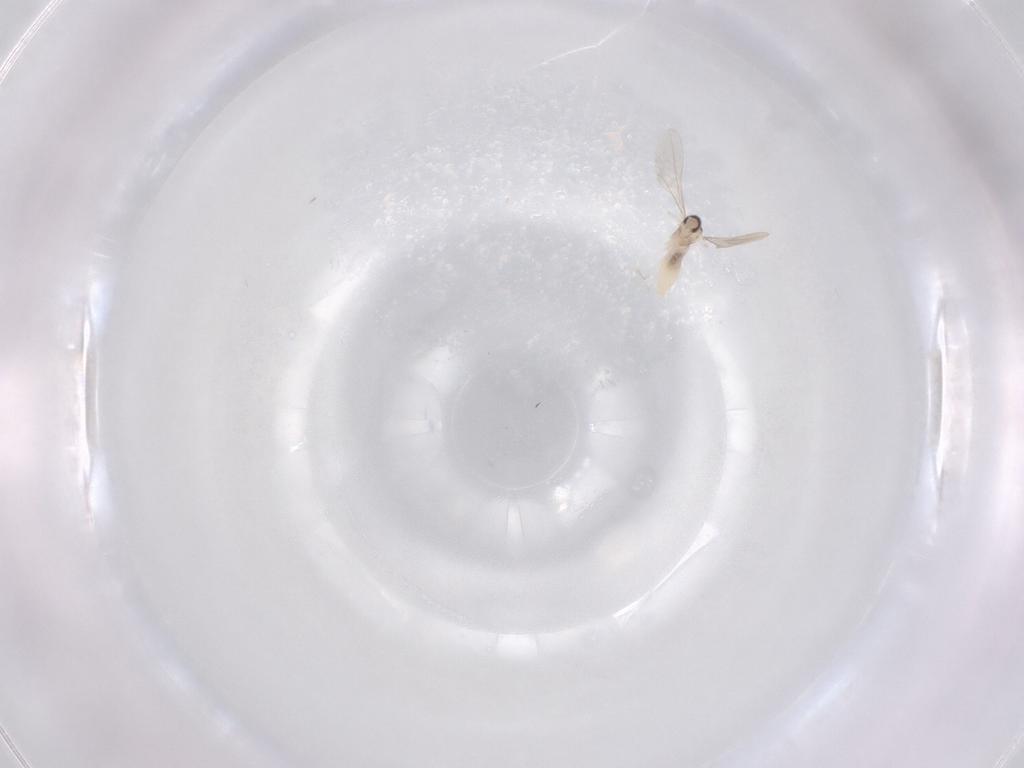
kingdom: Animalia
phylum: Arthropoda
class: Insecta
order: Diptera
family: Cecidomyiidae
